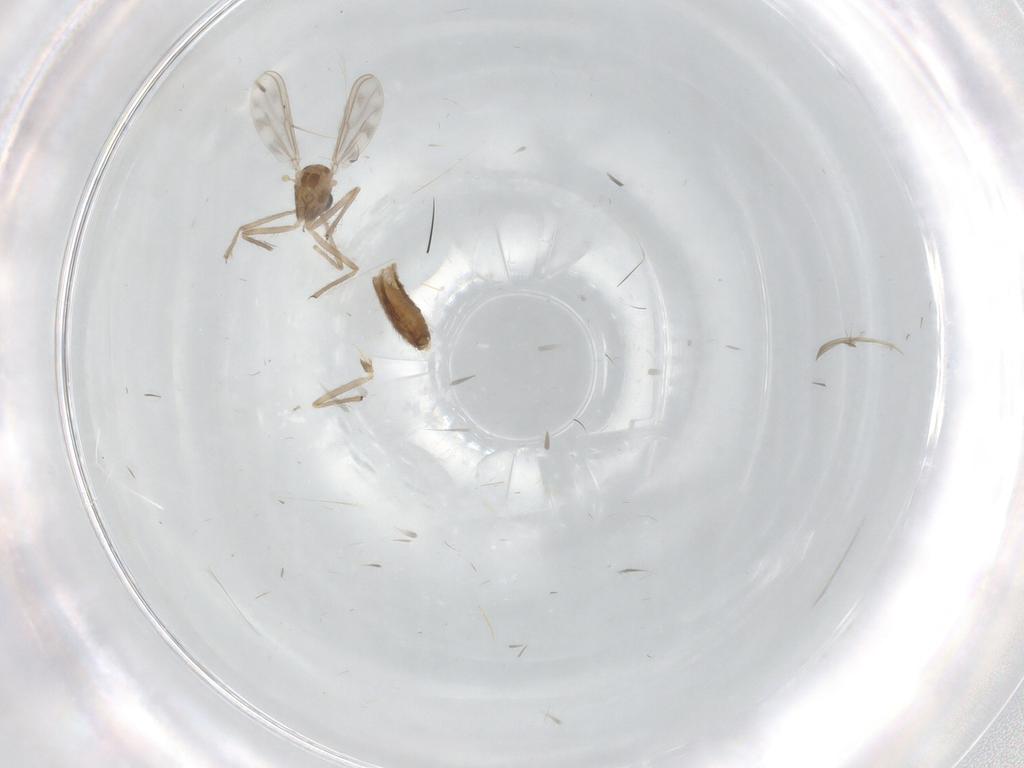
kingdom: Animalia
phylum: Arthropoda
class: Insecta
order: Diptera
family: Chironomidae
